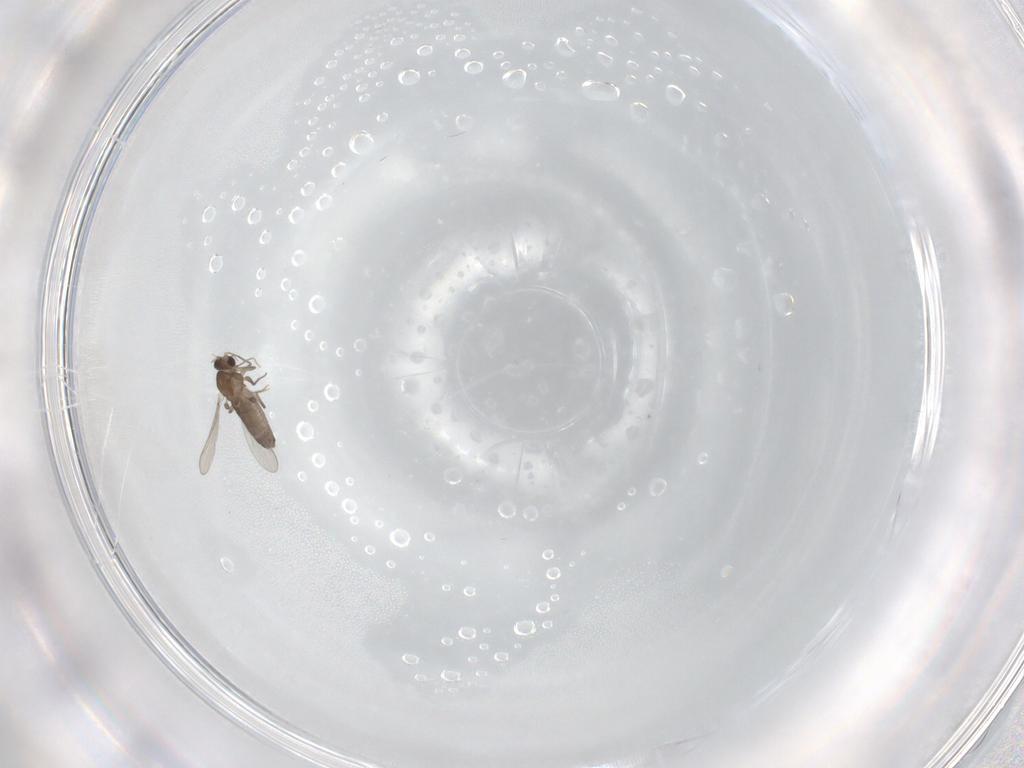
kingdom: Animalia
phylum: Arthropoda
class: Insecta
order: Diptera
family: Chironomidae
